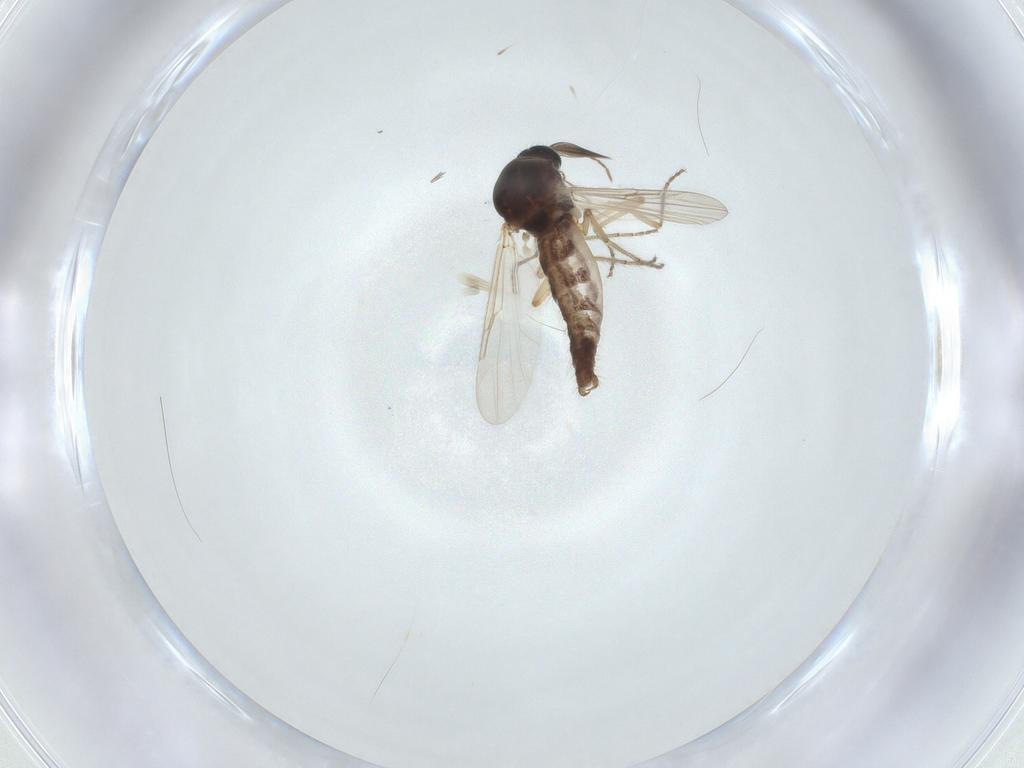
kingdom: Animalia
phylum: Arthropoda
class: Insecta
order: Diptera
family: Ceratopogonidae
